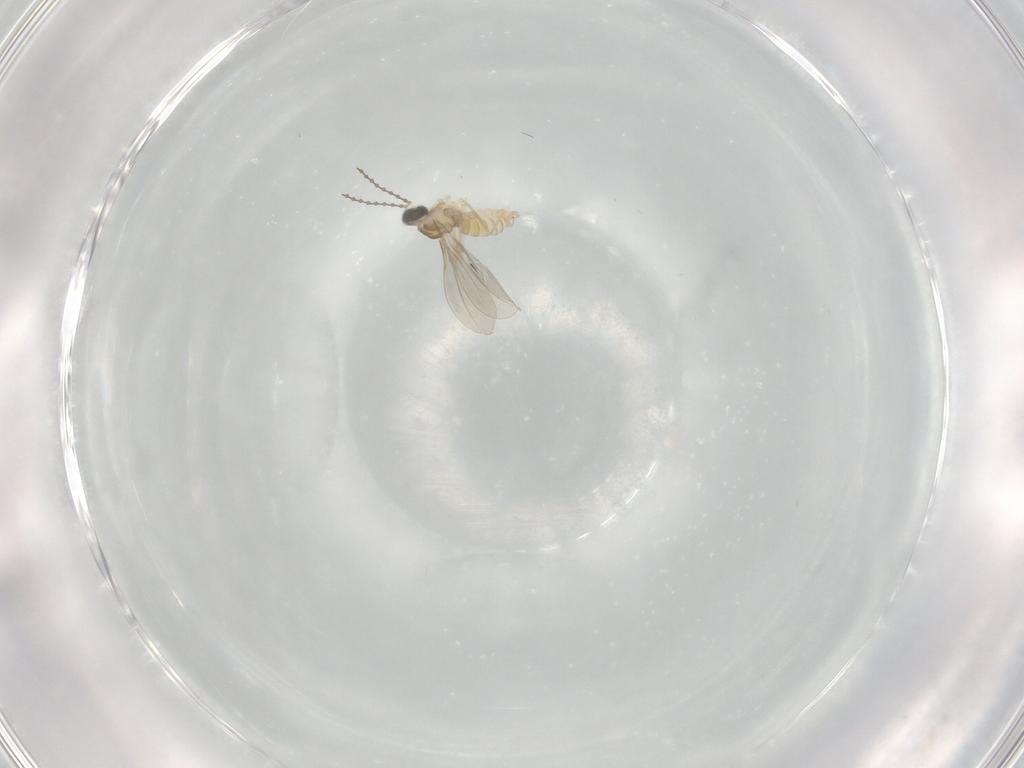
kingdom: Animalia
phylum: Arthropoda
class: Insecta
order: Diptera
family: Cecidomyiidae
